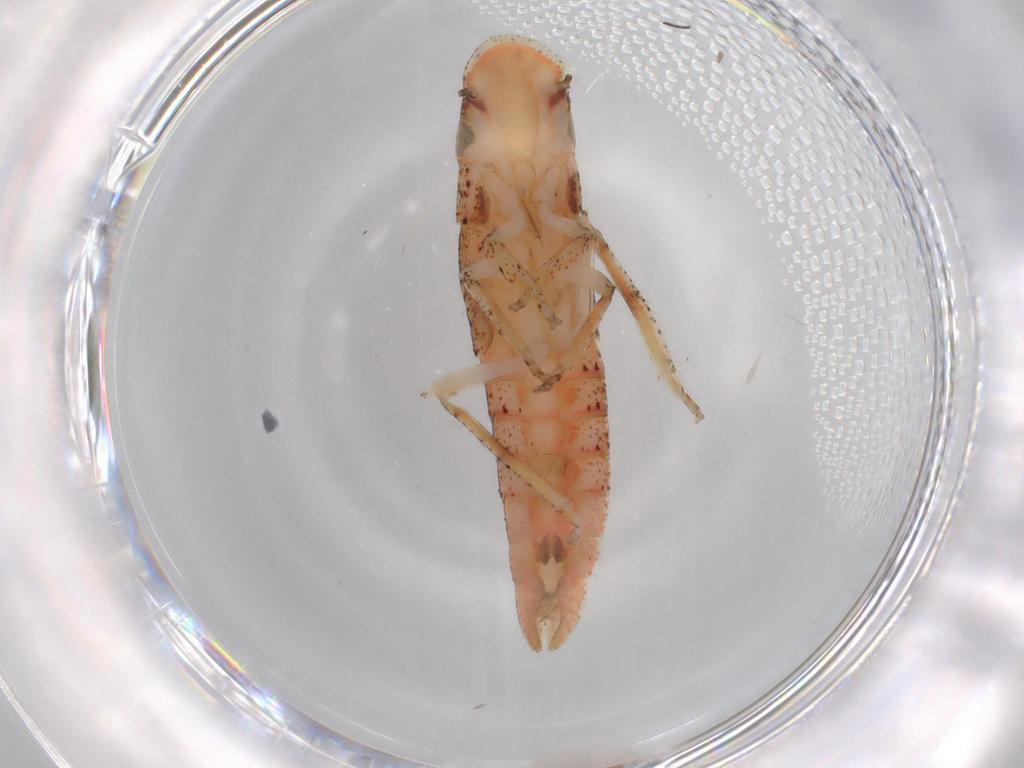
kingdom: Animalia
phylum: Arthropoda
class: Insecta
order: Hemiptera
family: Cicadellidae
